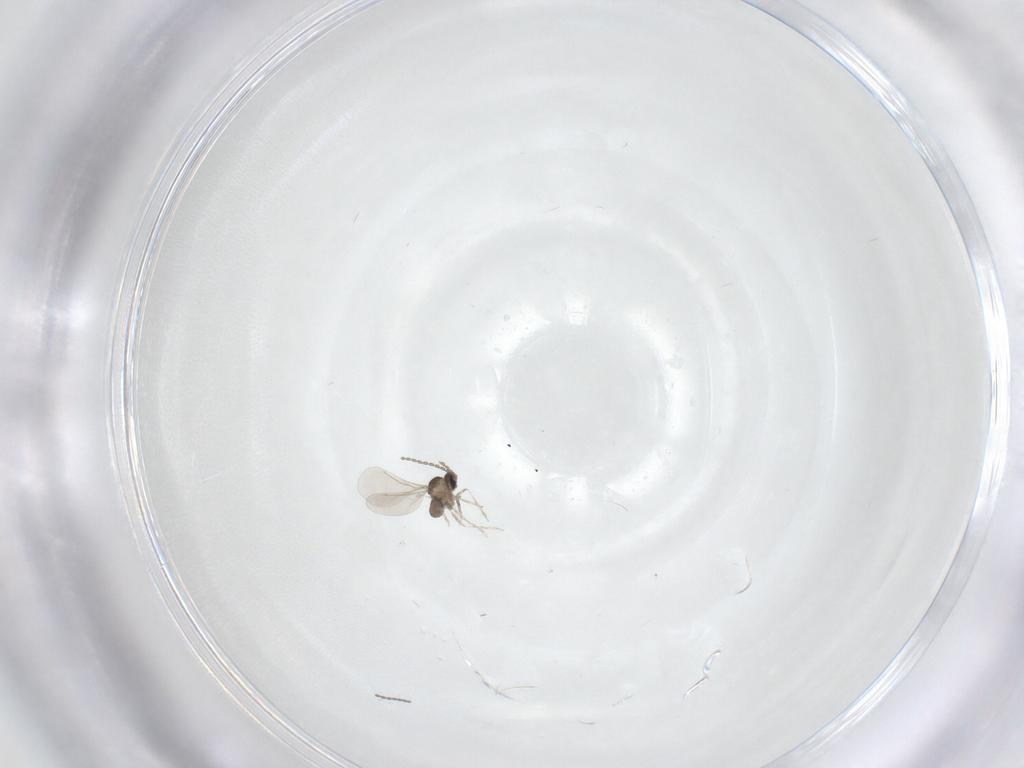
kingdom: Animalia
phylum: Arthropoda
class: Insecta
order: Diptera
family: Cecidomyiidae
